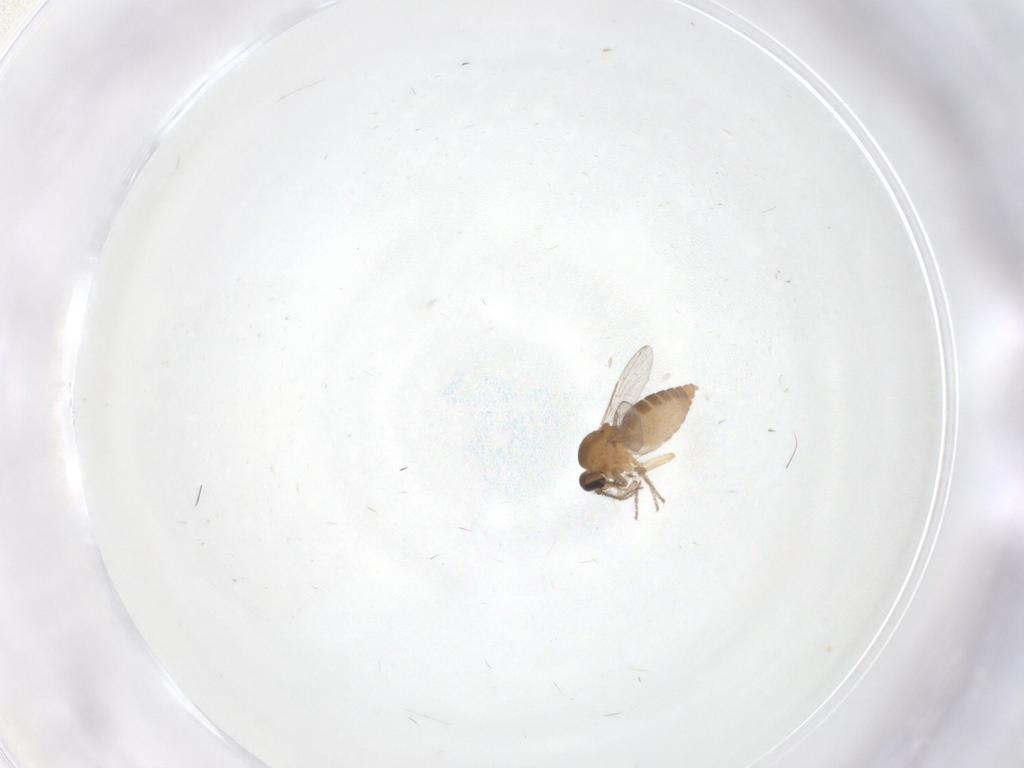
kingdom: Animalia
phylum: Arthropoda
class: Insecta
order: Diptera
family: Ceratopogonidae
